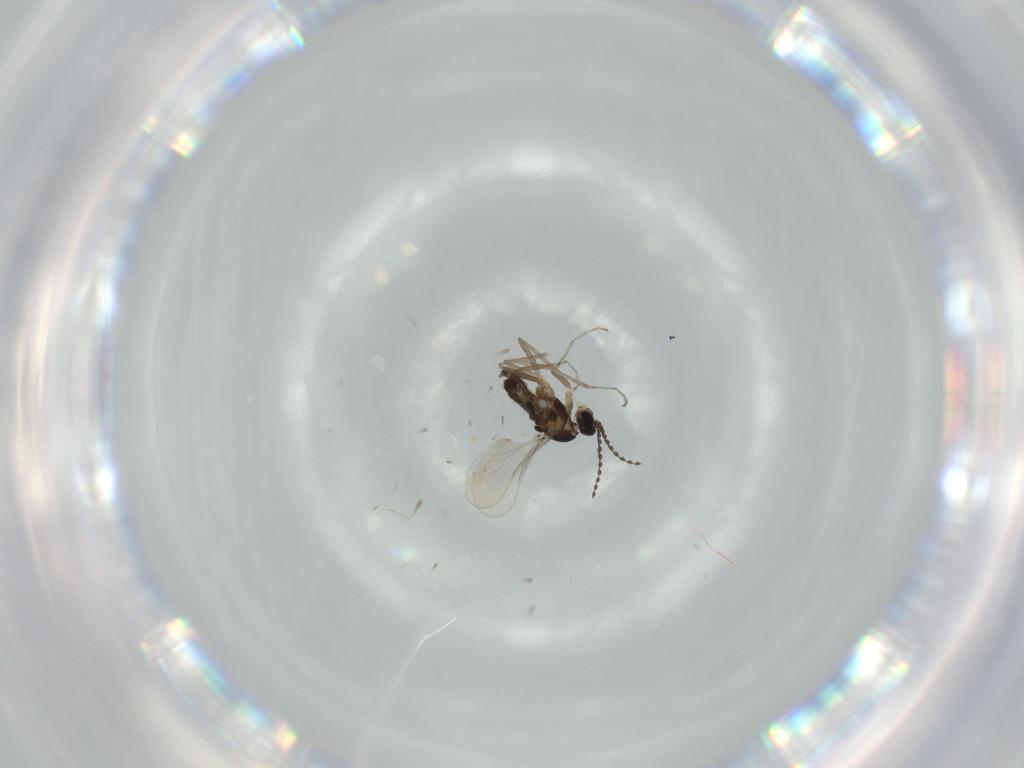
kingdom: Animalia
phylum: Arthropoda
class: Insecta
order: Diptera
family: Cecidomyiidae
